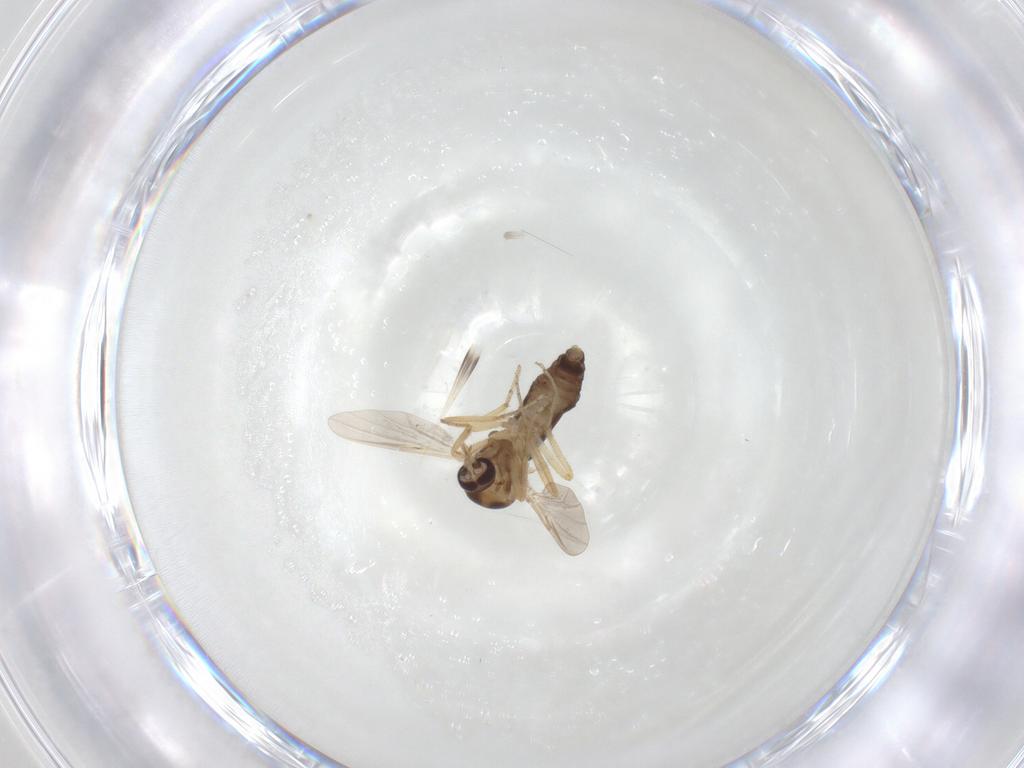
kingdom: Animalia
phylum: Arthropoda
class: Insecta
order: Diptera
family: Ceratopogonidae
